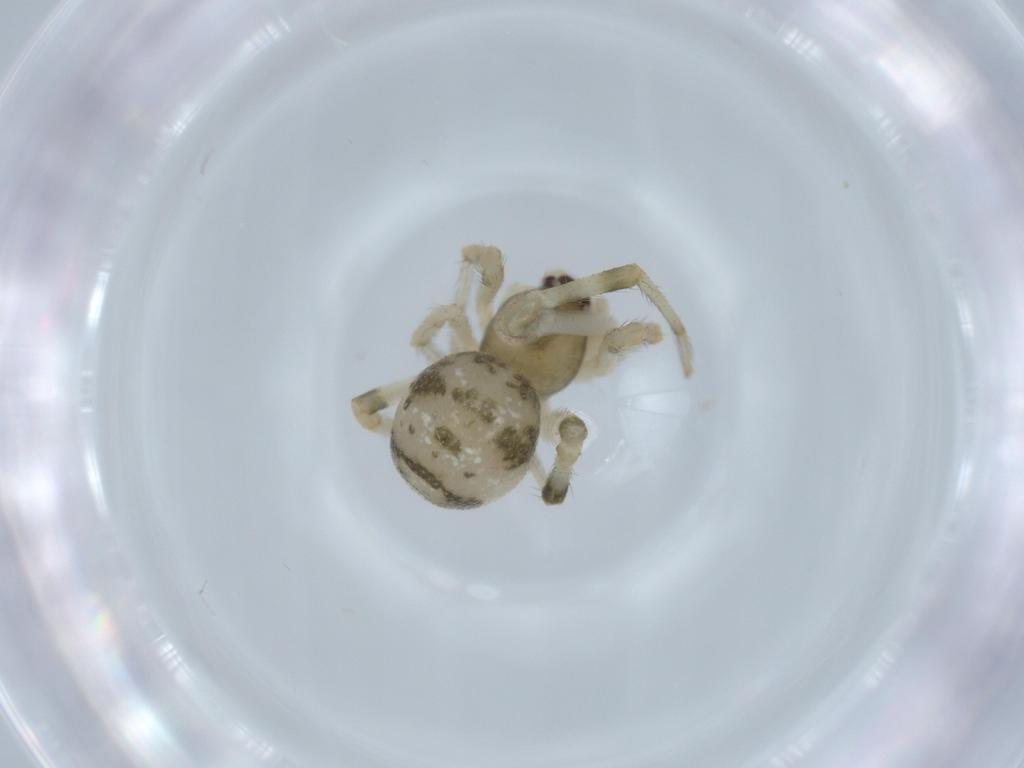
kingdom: Animalia
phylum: Arthropoda
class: Arachnida
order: Araneae
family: Theridiidae
